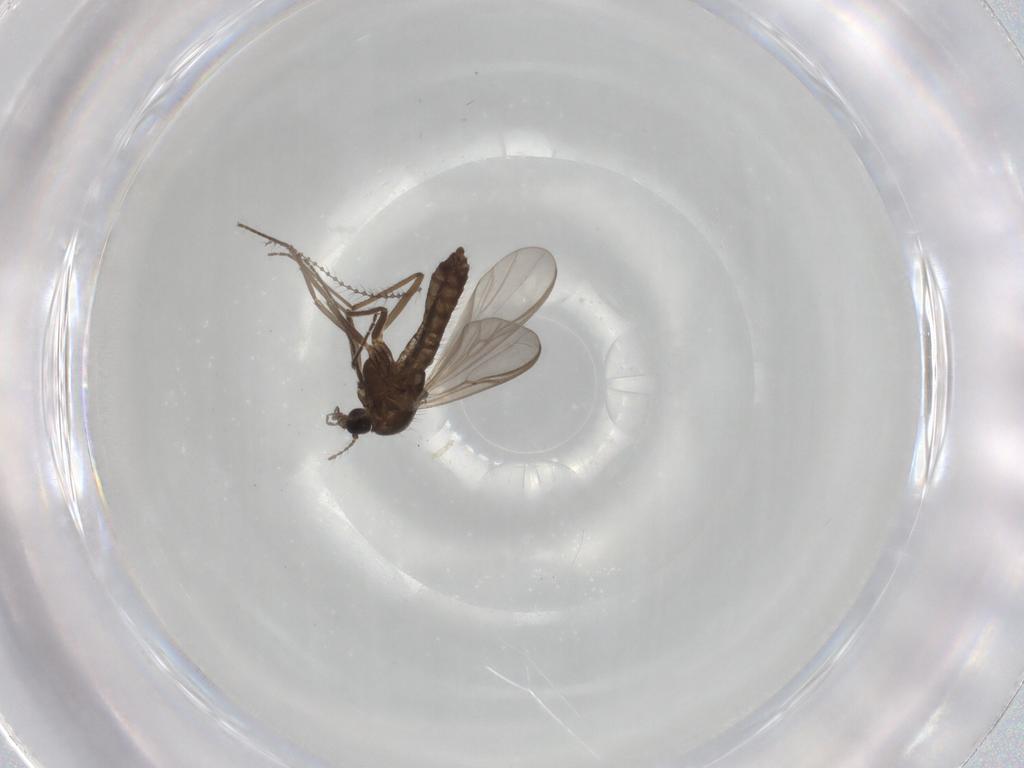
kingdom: Animalia
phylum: Arthropoda
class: Insecta
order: Diptera
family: Chironomidae
